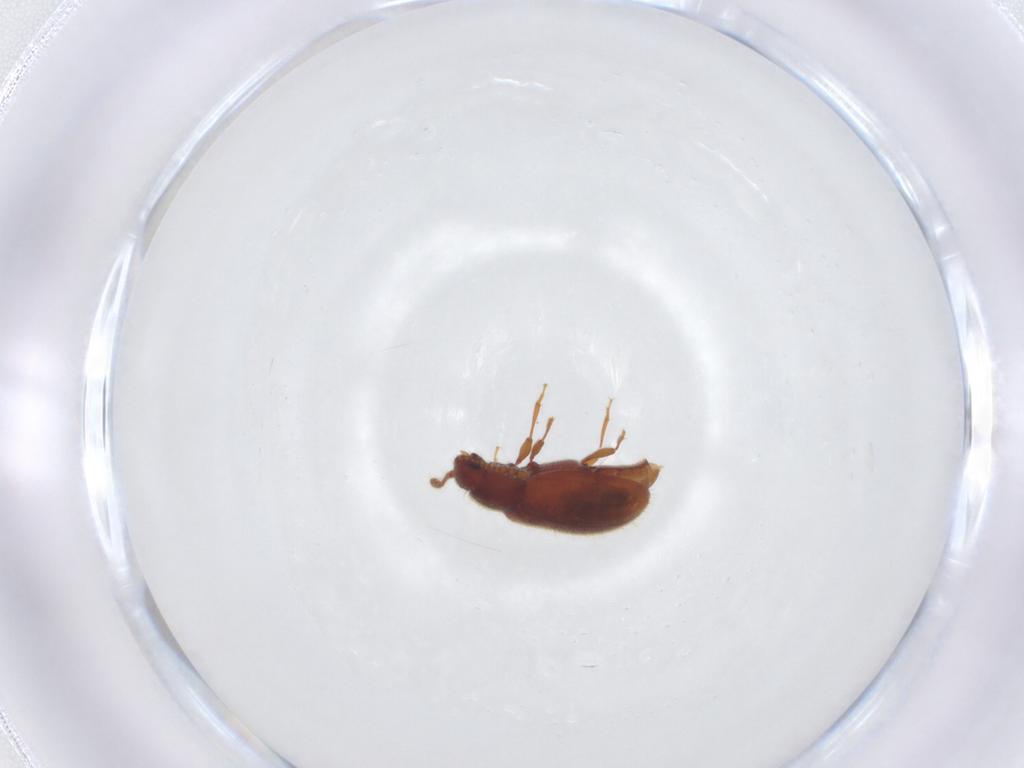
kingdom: Animalia
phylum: Arthropoda
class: Insecta
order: Coleoptera
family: Cryptophagidae
